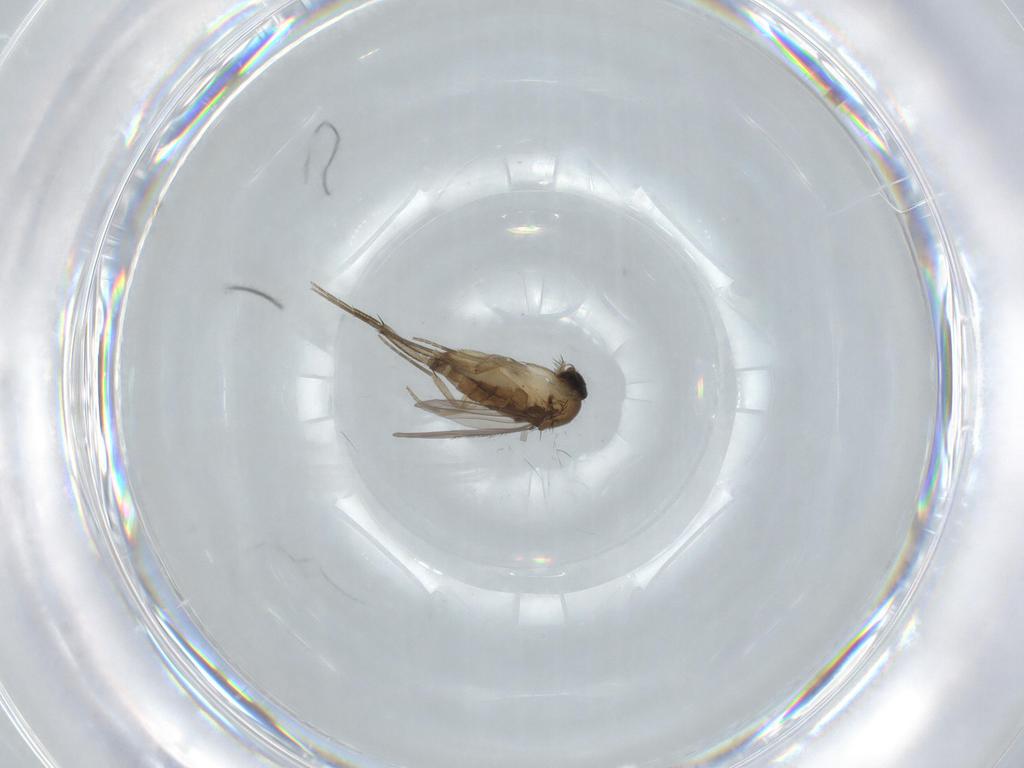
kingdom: Animalia
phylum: Arthropoda
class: Insecta
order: Diptera
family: Phoridae
